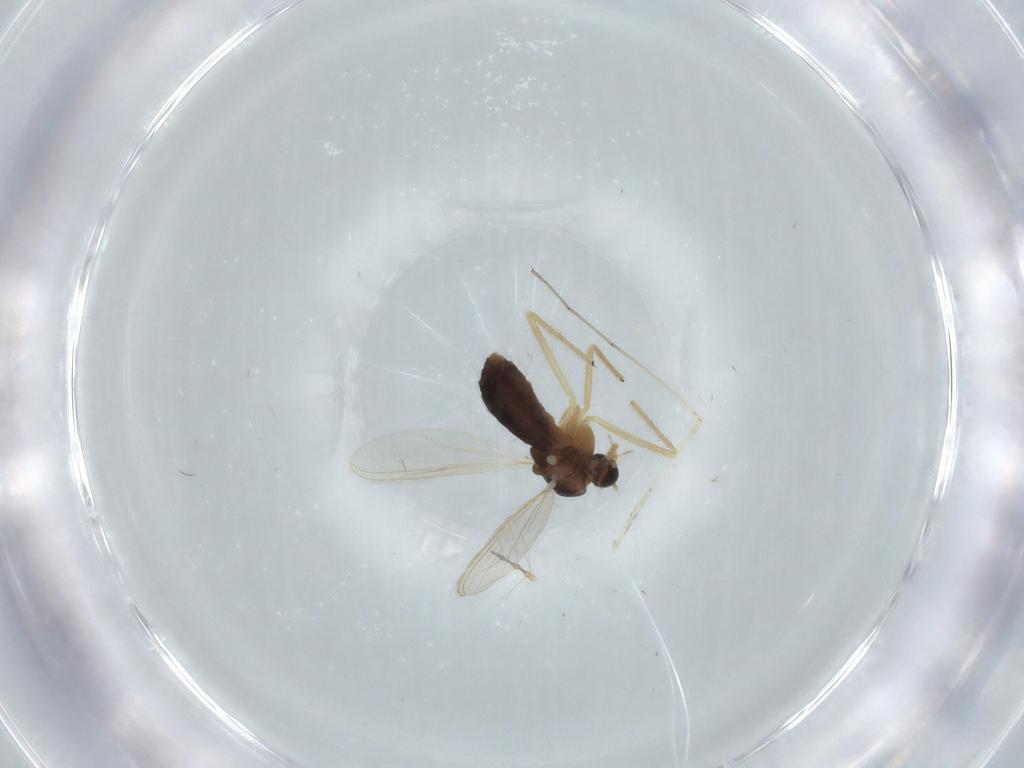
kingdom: Animalia
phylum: Arthropoda
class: Insecta
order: Diptera
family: Chironomidae
